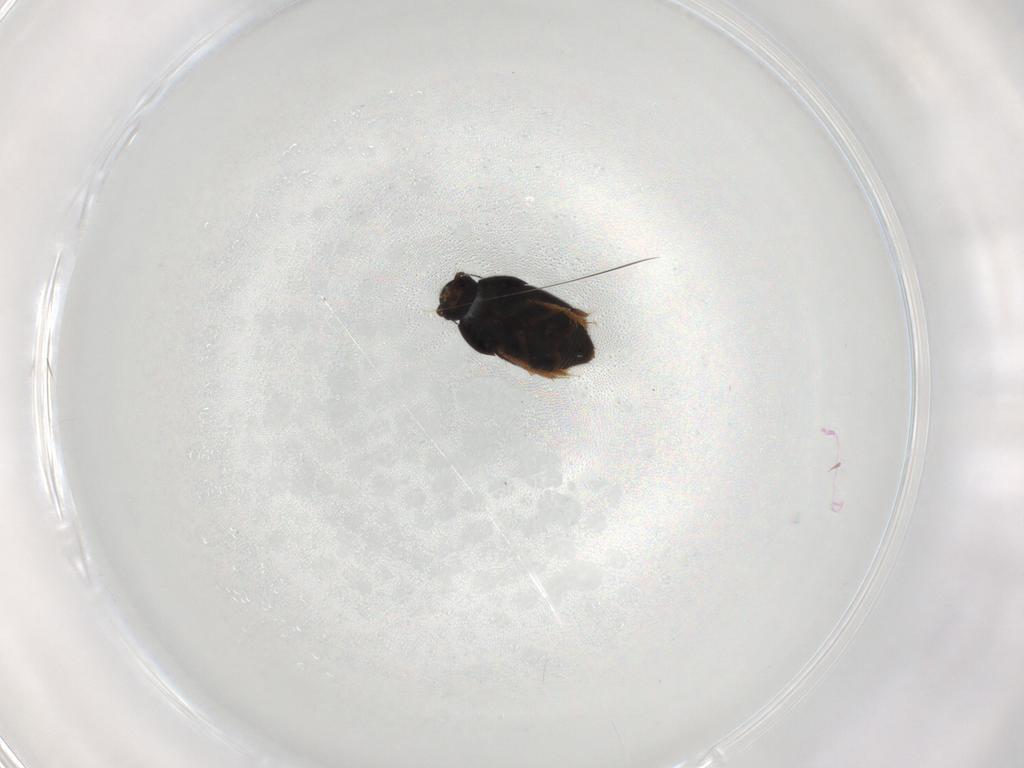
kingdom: Animalia
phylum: Arthropoda
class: Insecta
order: Coleoptera
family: Ptiliidae
